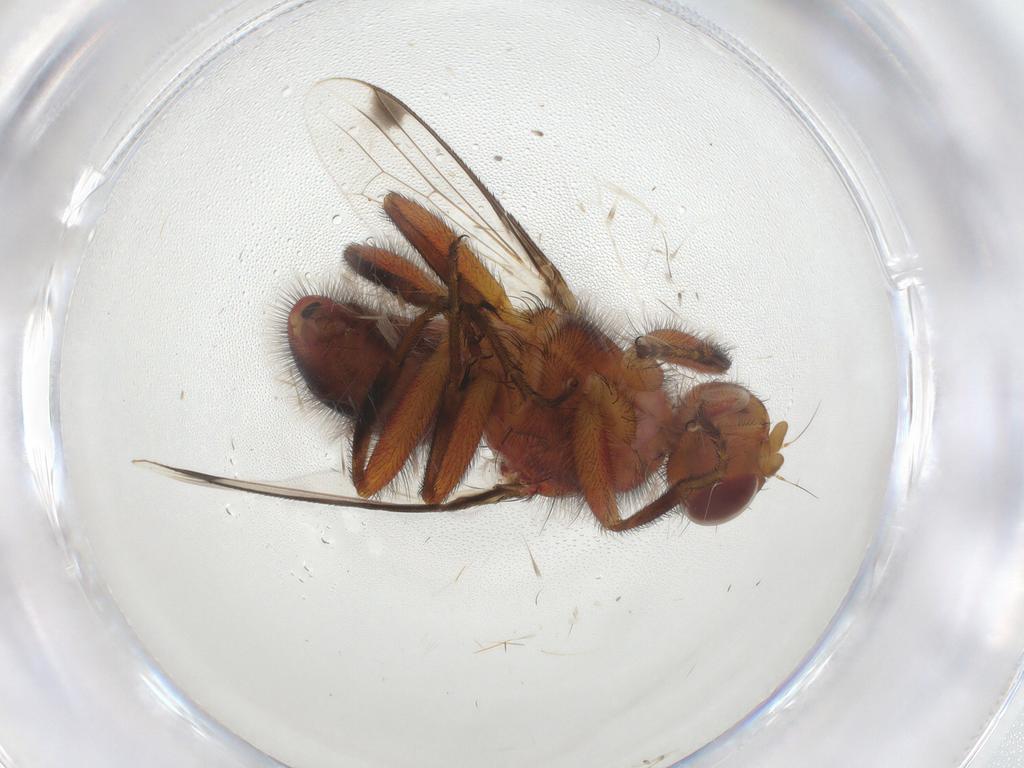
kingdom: Animalia
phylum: Arthropoda
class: Insecta
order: Diptera
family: Richardiidae
